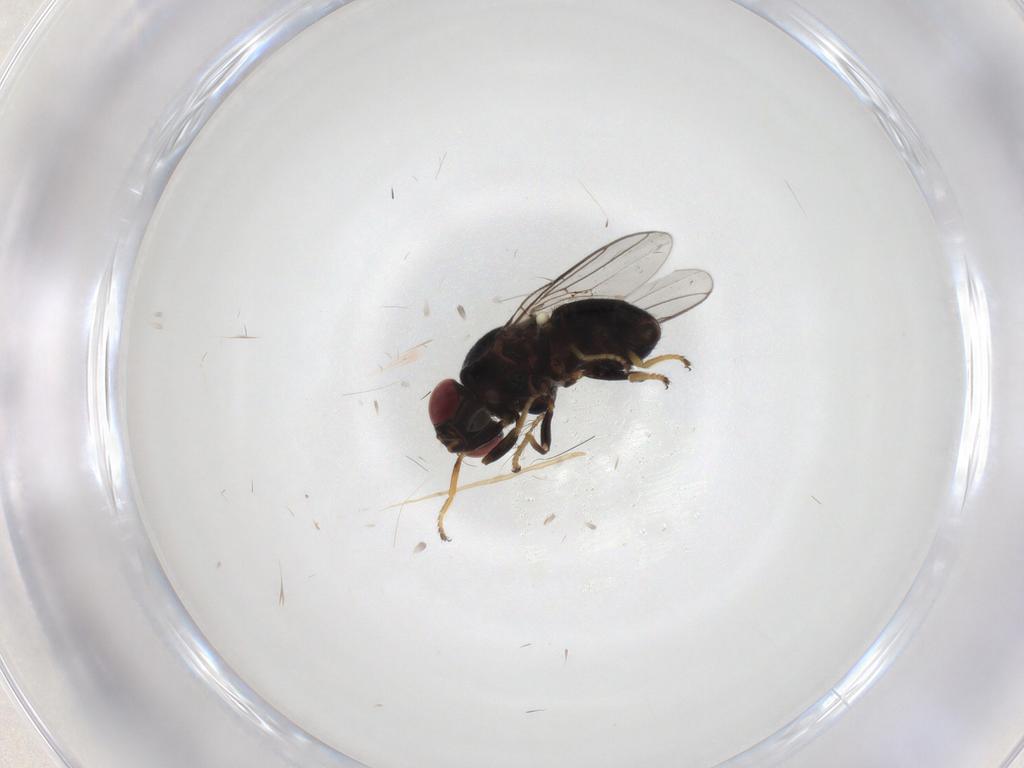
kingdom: Animalia
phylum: Arthropoda
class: Insecta
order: Diptera
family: Chloropidae
